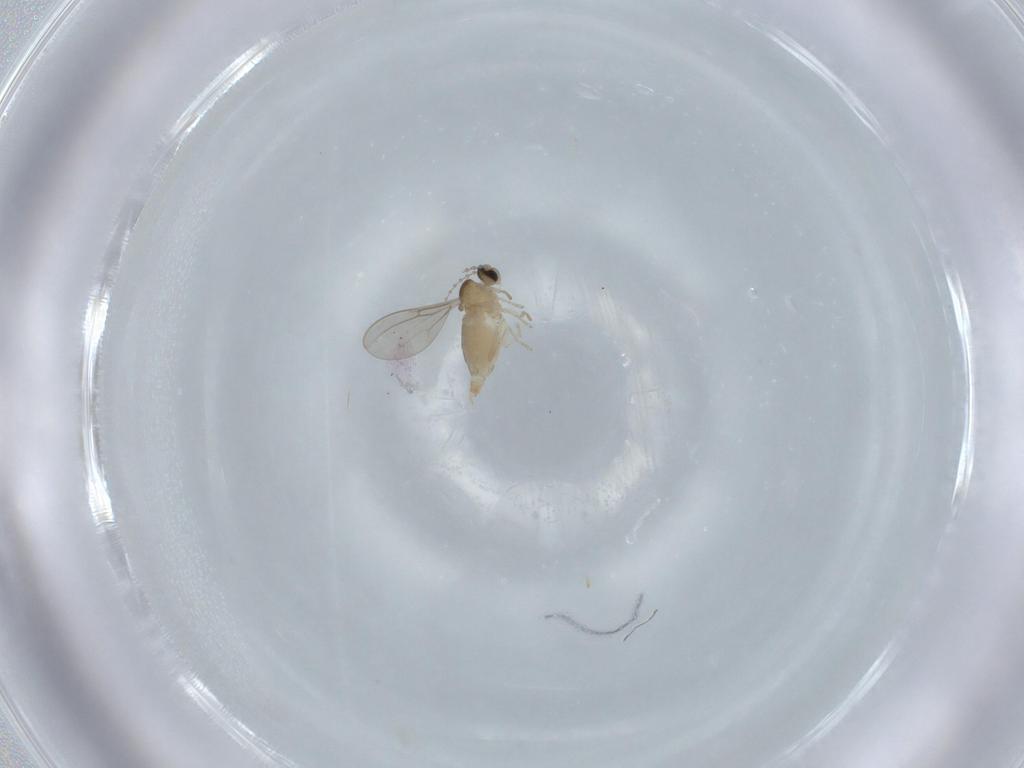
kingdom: Animalia
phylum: Arthropoda
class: Insecta
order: Diptera
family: Cecidomyiidae
